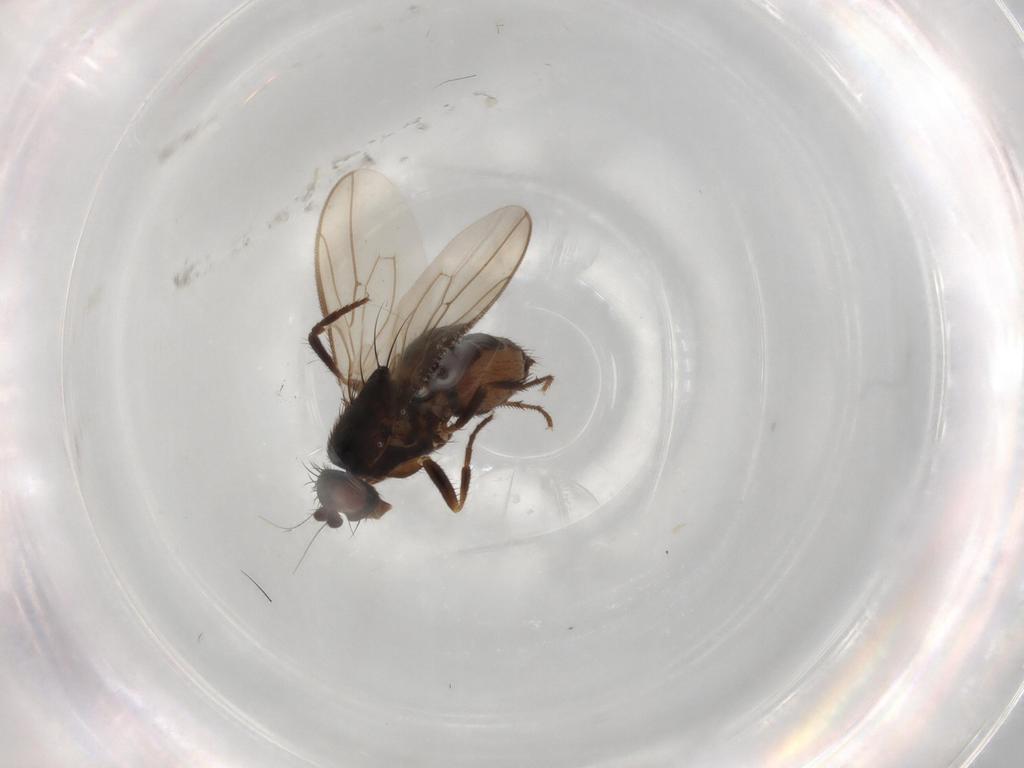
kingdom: Animalia
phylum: Arthropoda
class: Insecta
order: Diptera
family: Sphaeroceridae
